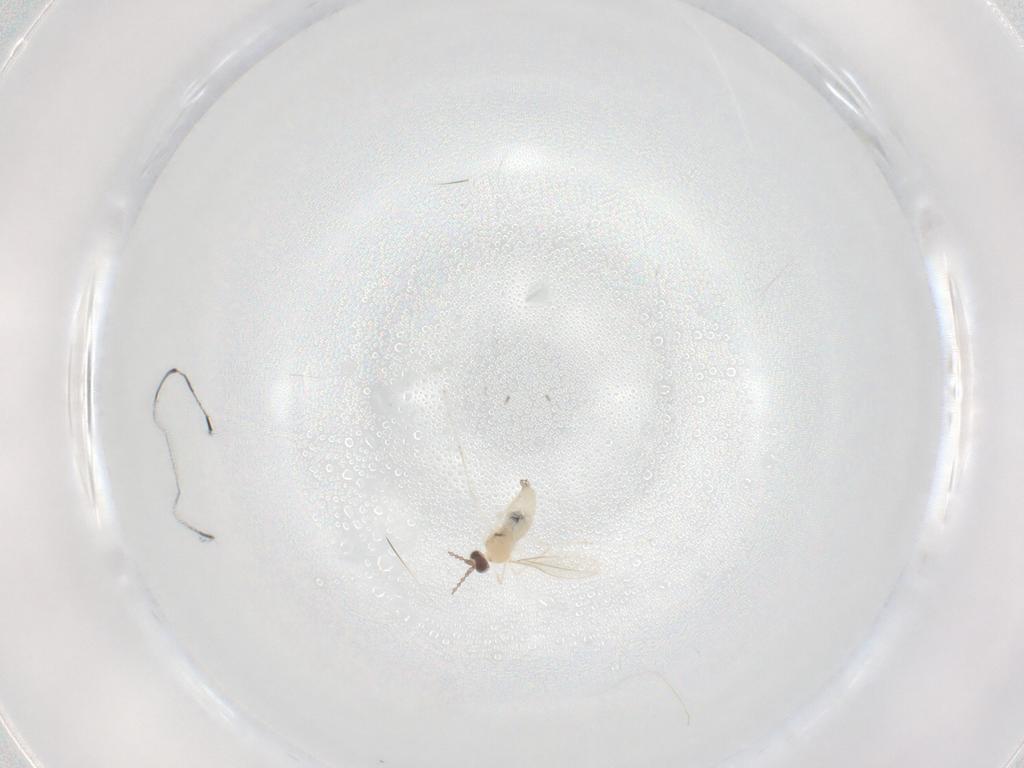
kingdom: Animalia
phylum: Arthropoda
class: Insecta
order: Diptera
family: Cecidomyiidae
